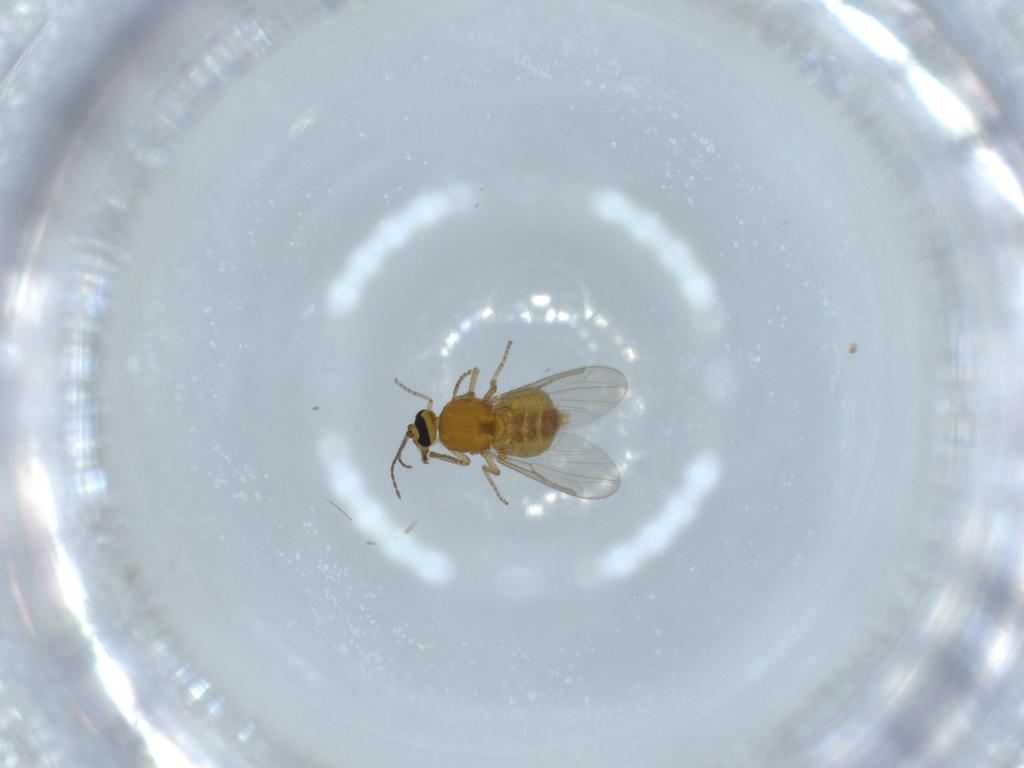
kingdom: Animalia
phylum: Arthropoda
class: Insecta
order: Diptera
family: Ceratopogonidae
